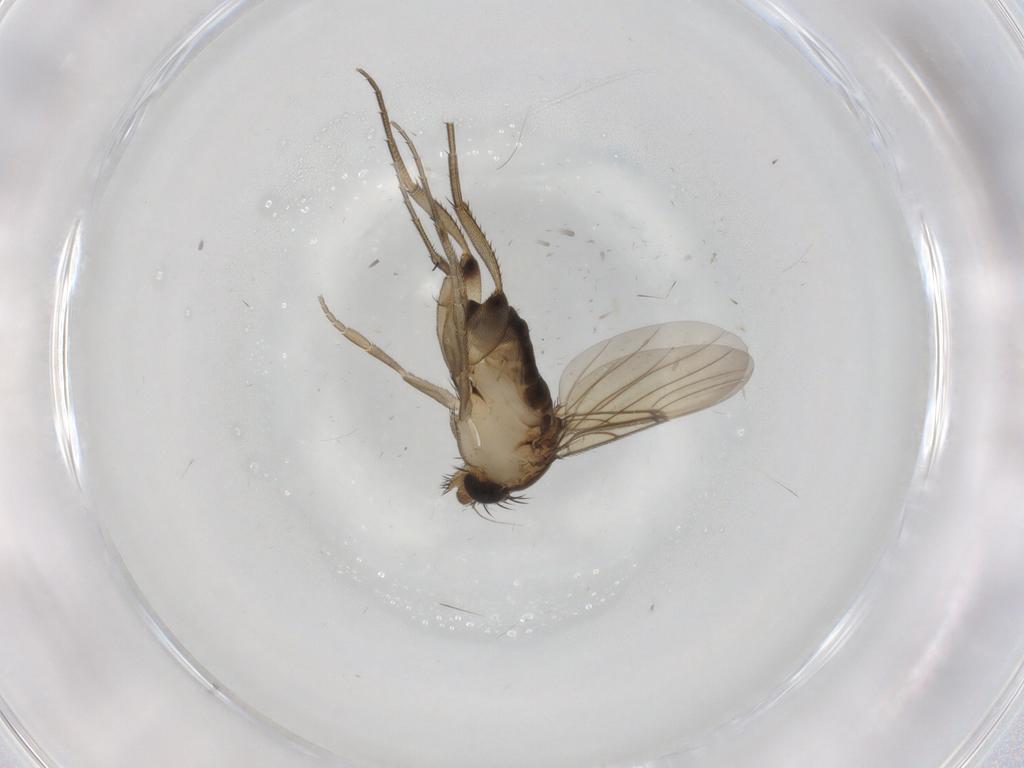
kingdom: Animalia
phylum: Arthropoda
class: Insecta
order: Diptera
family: Phoridae
